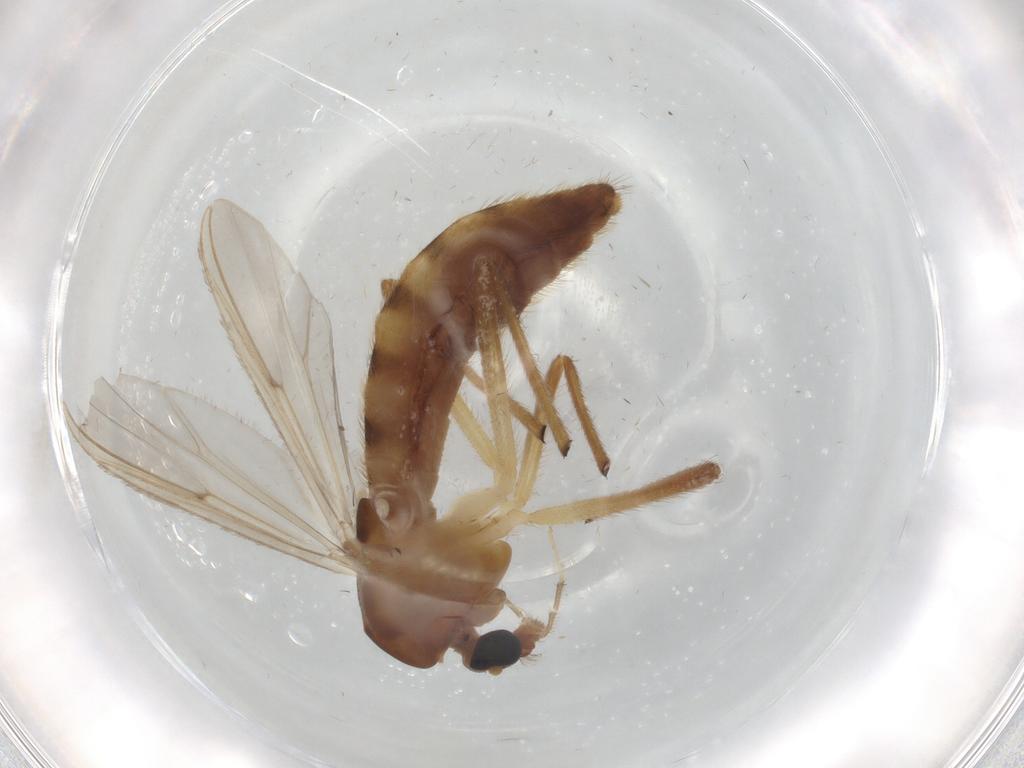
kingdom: Animalia
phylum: Arthropoda
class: Insecta
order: Diptera
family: Chironomidae
